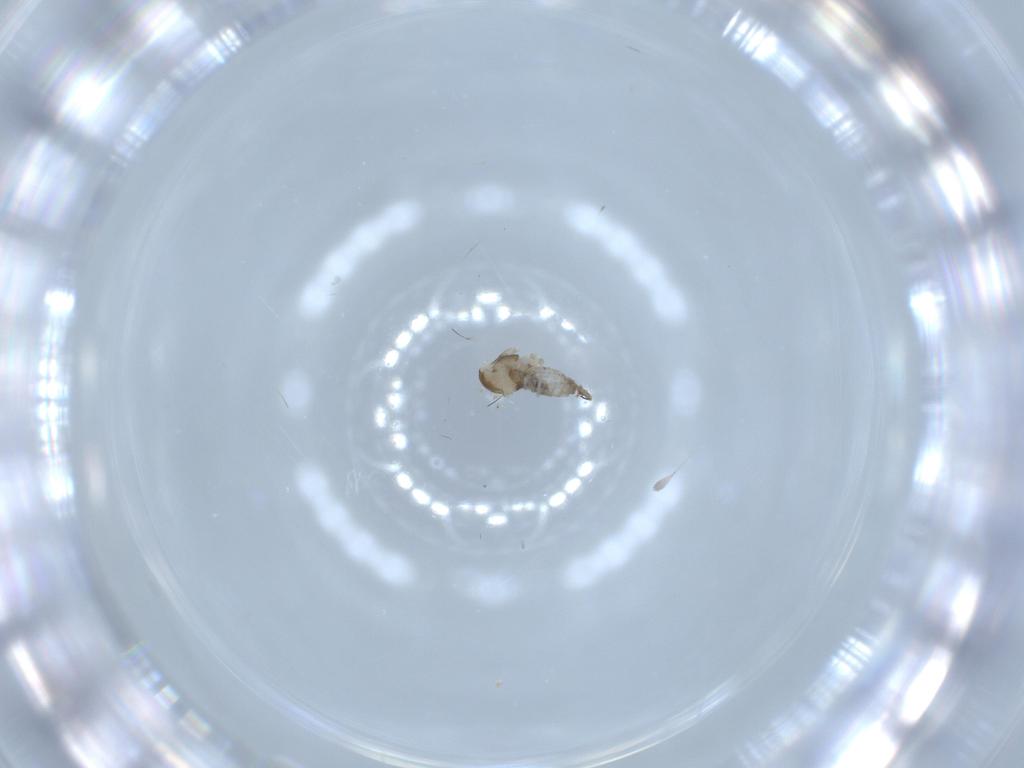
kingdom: Animalia
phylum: Arthropoda
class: Insecta
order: Diptera
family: Cecidomyiidae
